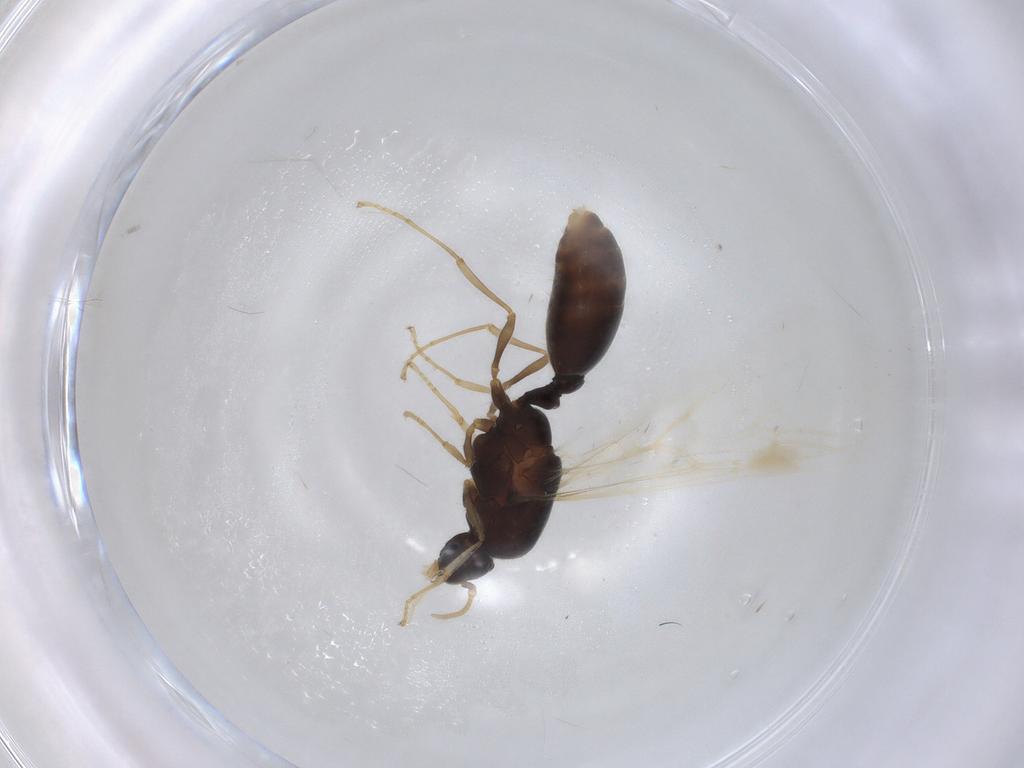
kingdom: Animalia
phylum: Arthropoda
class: Insecta
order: Hymenoptera
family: Formicidae
